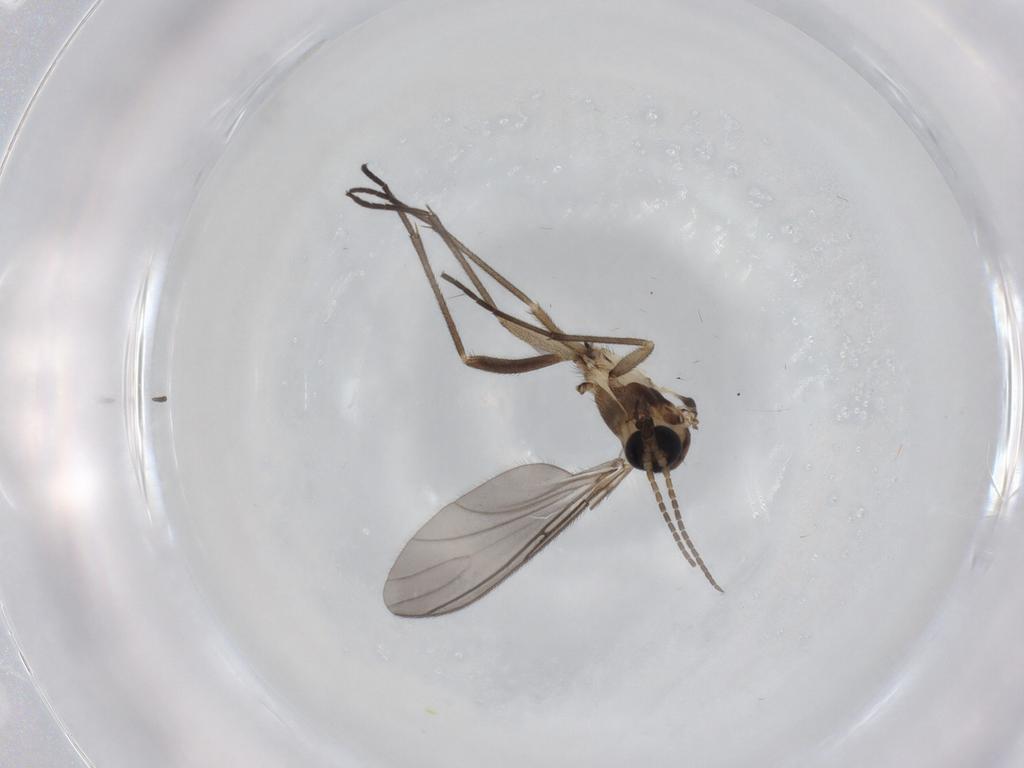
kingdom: Animalia
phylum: Arthropoda
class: Insecta
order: Diptera
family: Sciaridae
